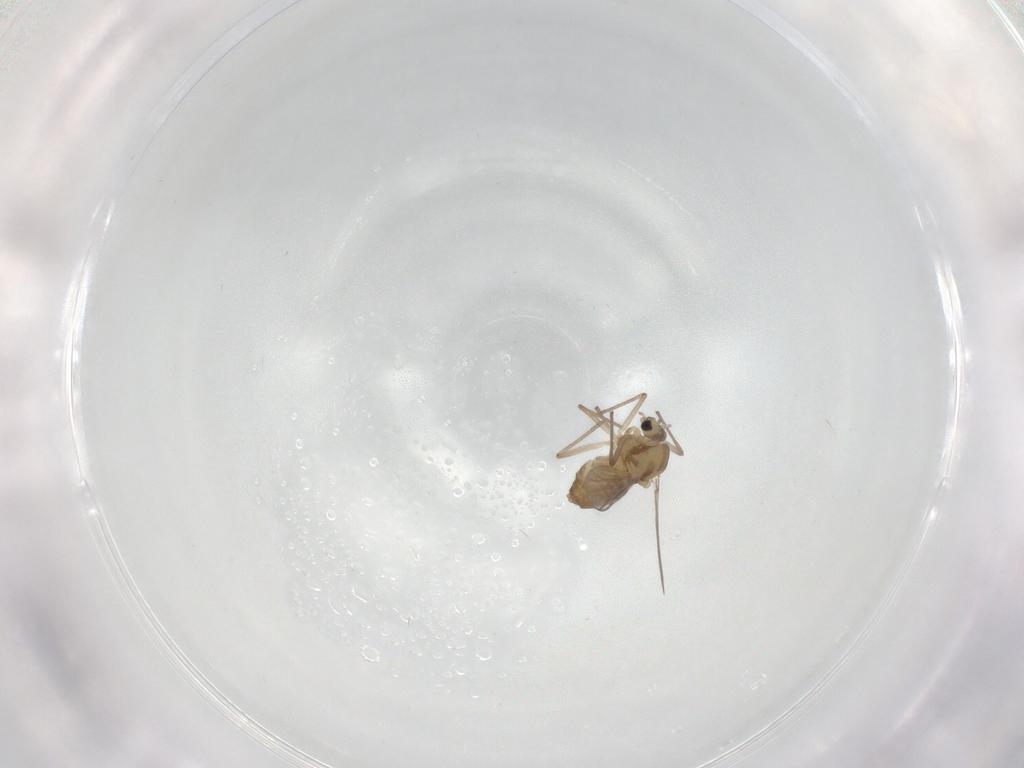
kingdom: Animalia
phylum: Arthropoda
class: Insecta
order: Diptera
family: Chironomidae
